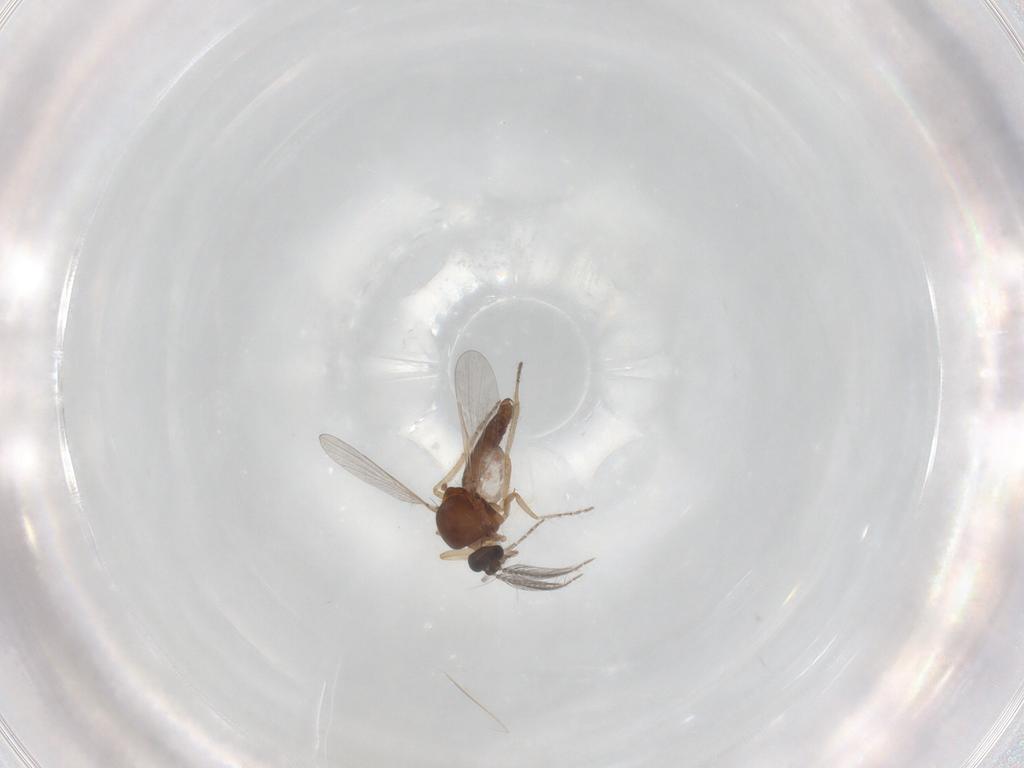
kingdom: Animalia
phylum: Arthropoda
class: Insecta
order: Diptera
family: Ceratopogonidae
